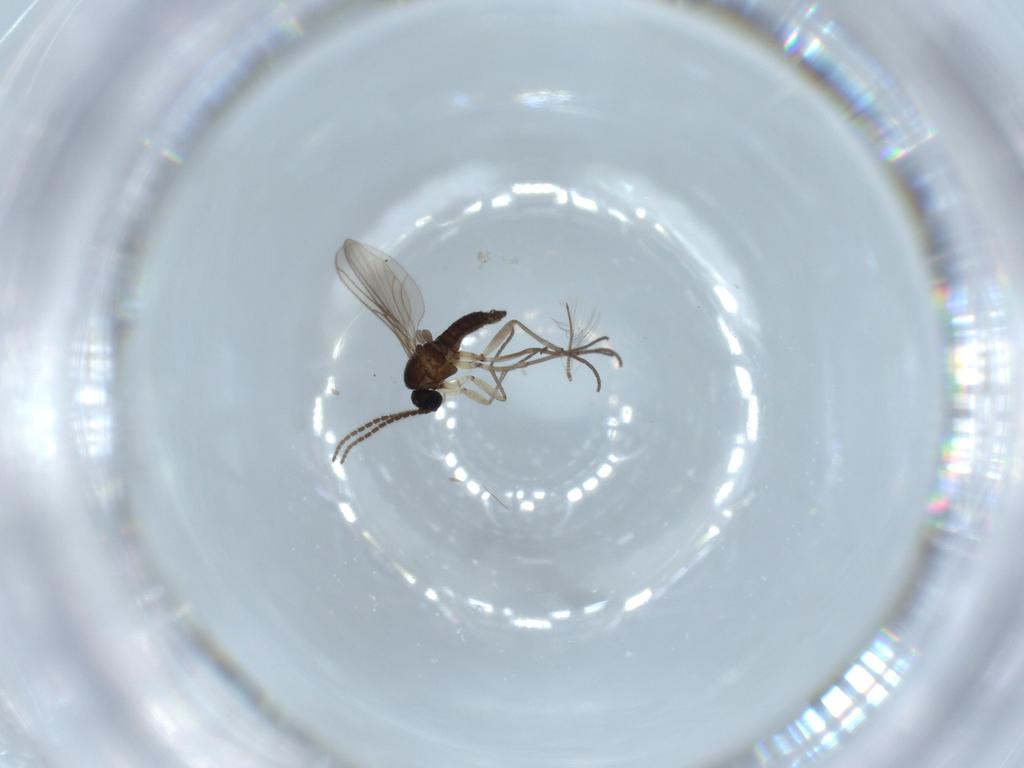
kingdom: Animalia
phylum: Arthropoda
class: Insecta
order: Diptera
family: Sciaridae
